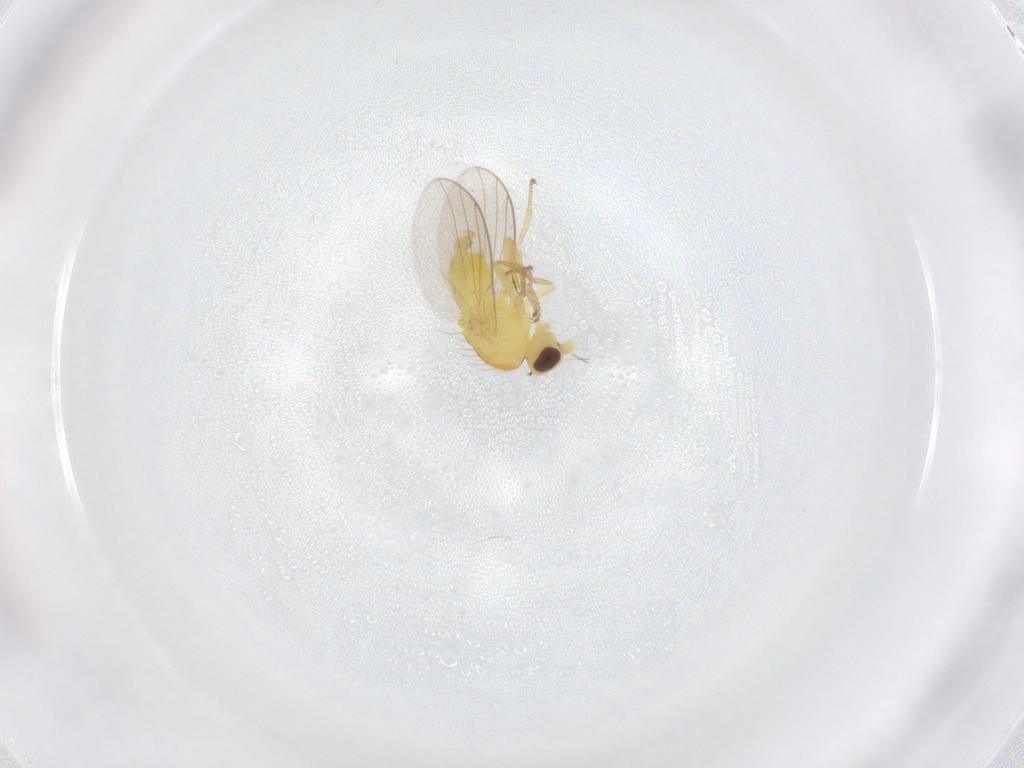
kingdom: Animalia
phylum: Arthropoda
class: Insecta
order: Diptera
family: Agromyzidae
